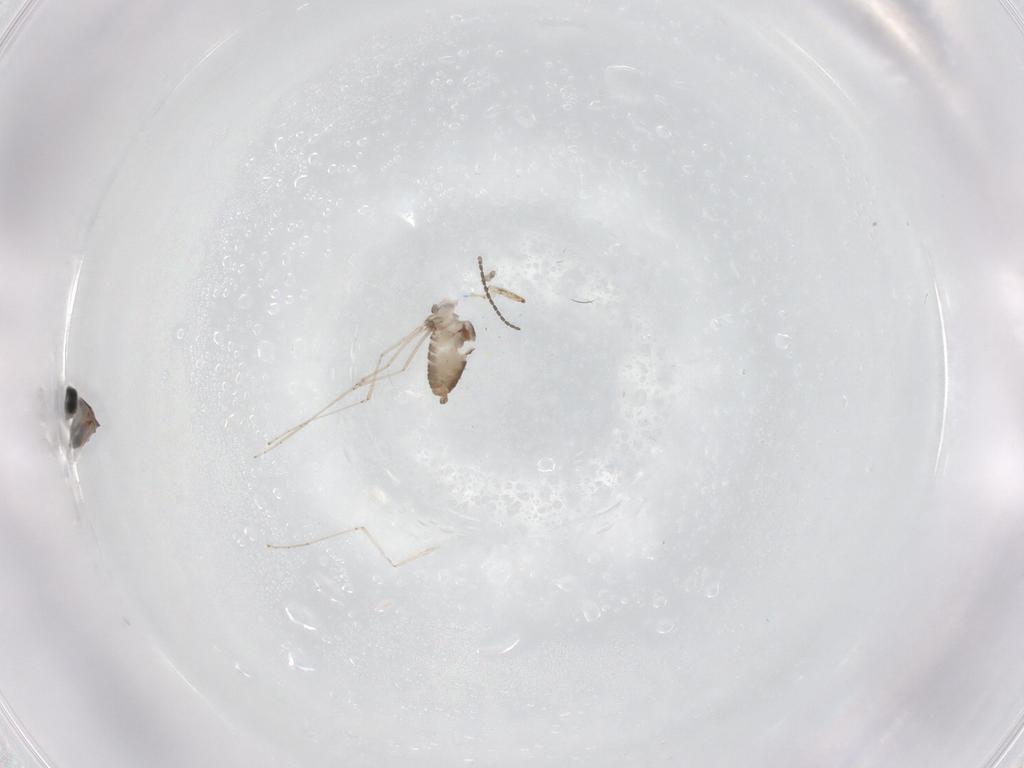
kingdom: Animalia
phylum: Arthropoda
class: Insecta
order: Diptera
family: Cecidomyiidae
